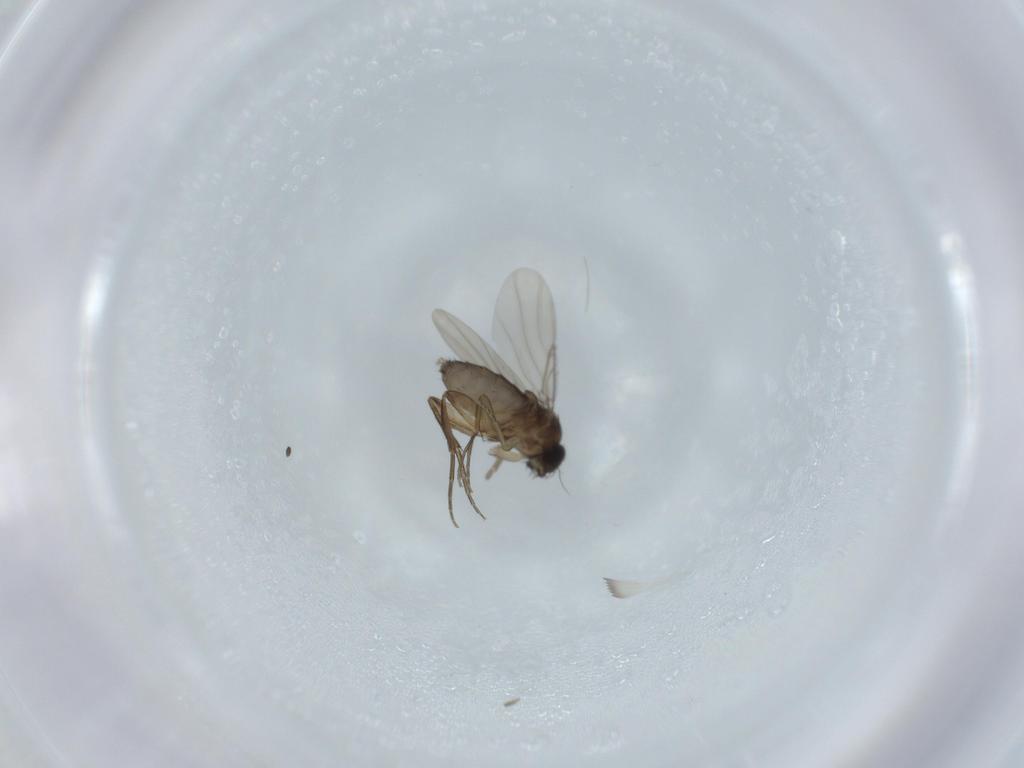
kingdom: Animalia
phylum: Arthropoda
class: Insecta
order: Diptera
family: Phoridae
